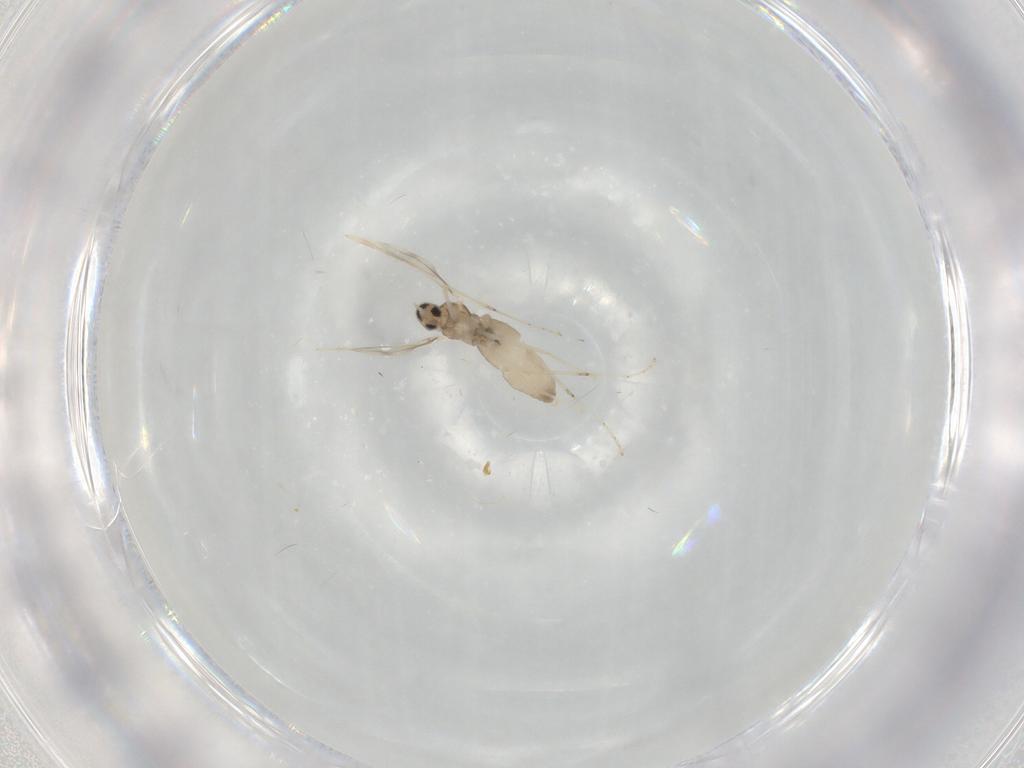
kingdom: Animalia
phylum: Arthropoda
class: Insecta
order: Diptera
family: Cecidomyiidae
